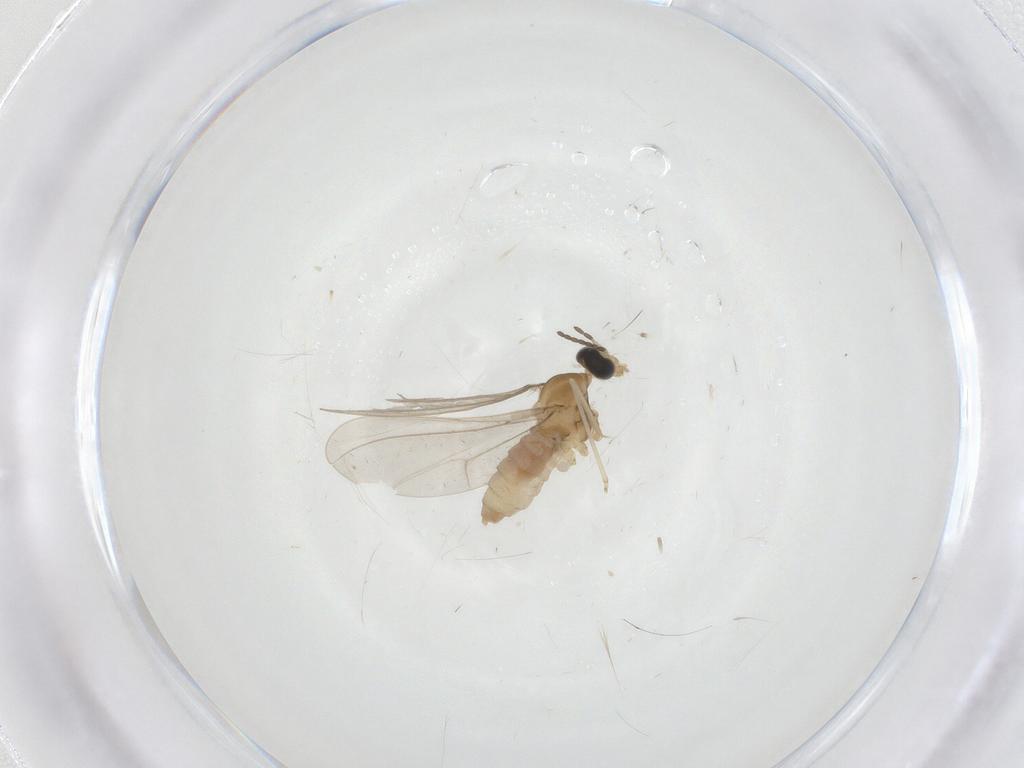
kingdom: Animalia
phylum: Arthropoda
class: Insecta
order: Diptera
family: Cecidomyiidae
